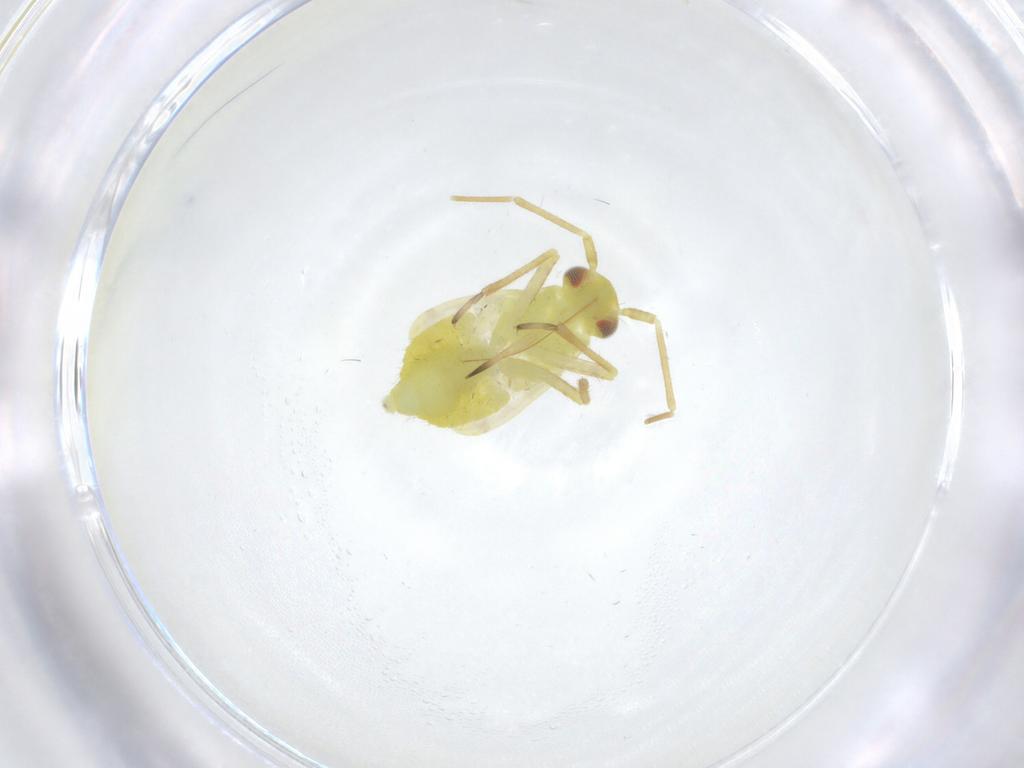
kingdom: Animalia
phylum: Arthropoda
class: Insecta
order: Hemiptera
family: Miridae
